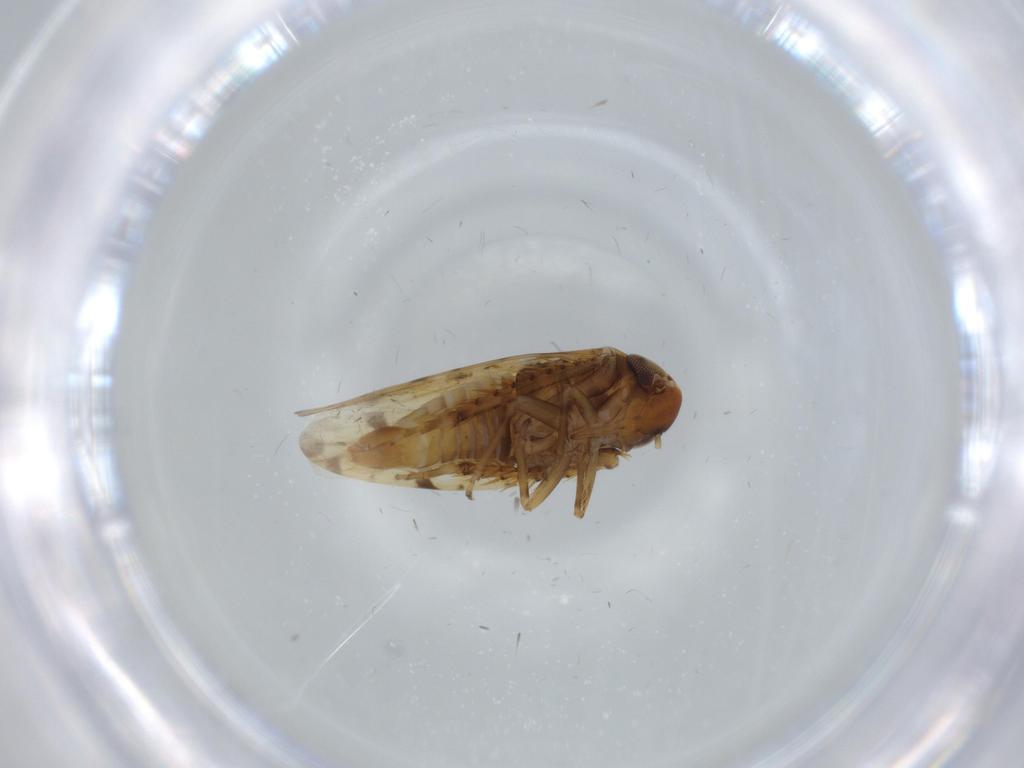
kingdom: Animalia
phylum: Arthropoda
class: Insecta
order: Hemiptera
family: Cicadellidae
